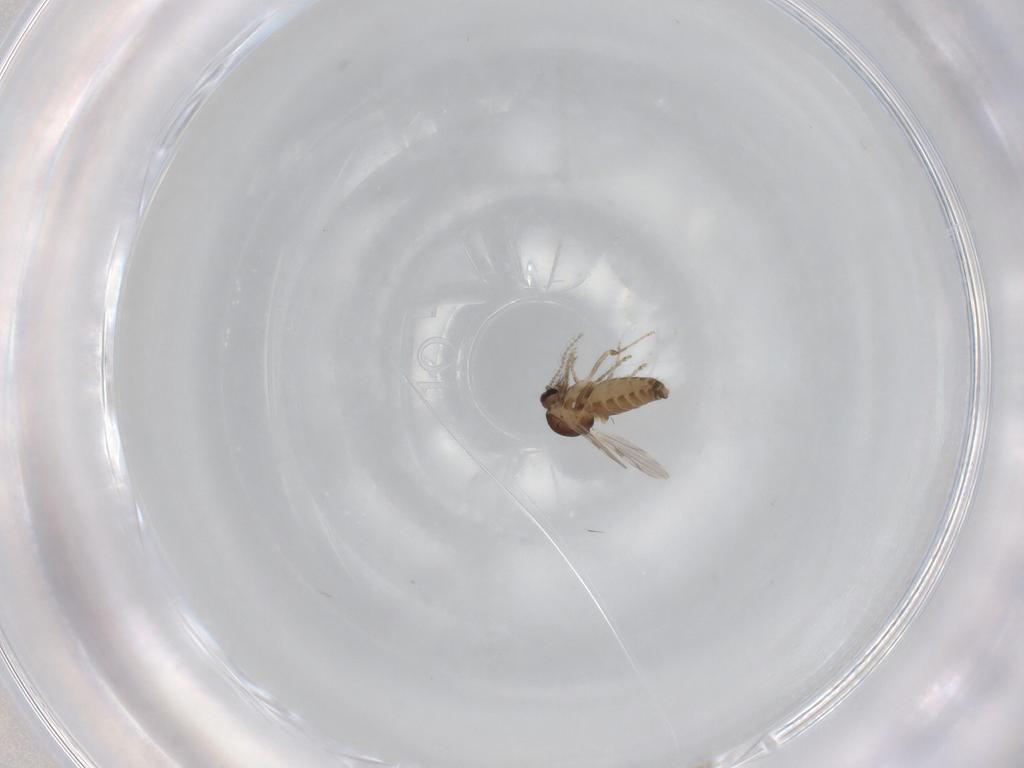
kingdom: Animalia
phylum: Arthropoda
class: Insecta
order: Diptera
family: Ceratopogonidae
